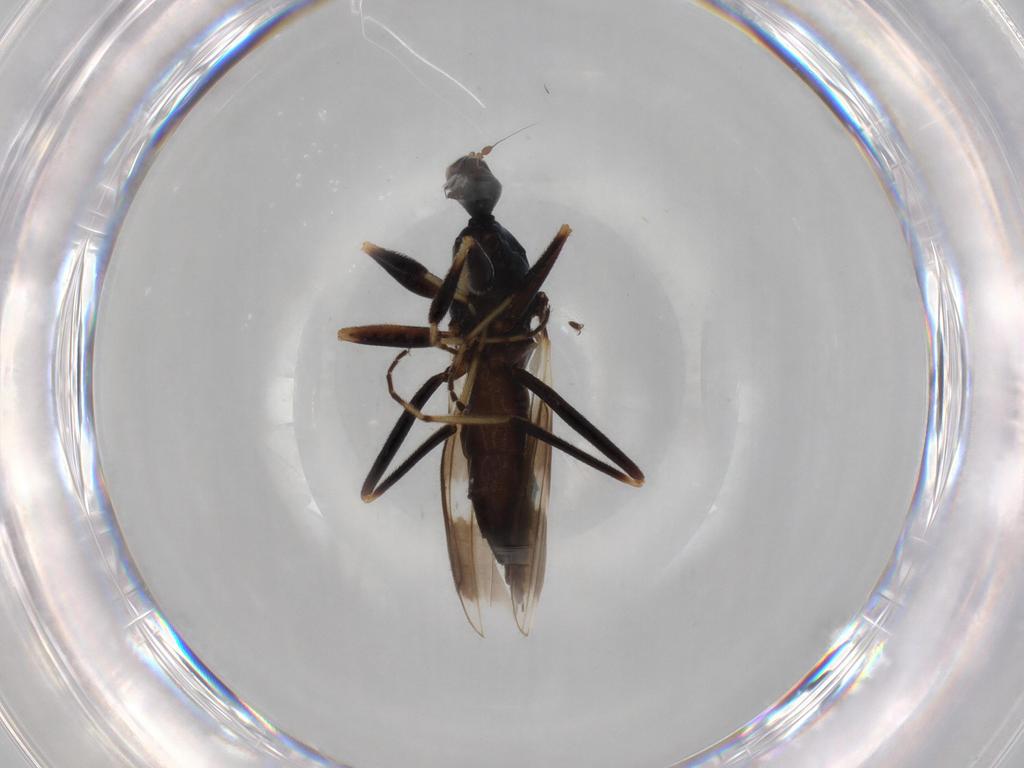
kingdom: Animalia
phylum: Arthropoda
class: Insecta
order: Diptera
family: Hybotidae
